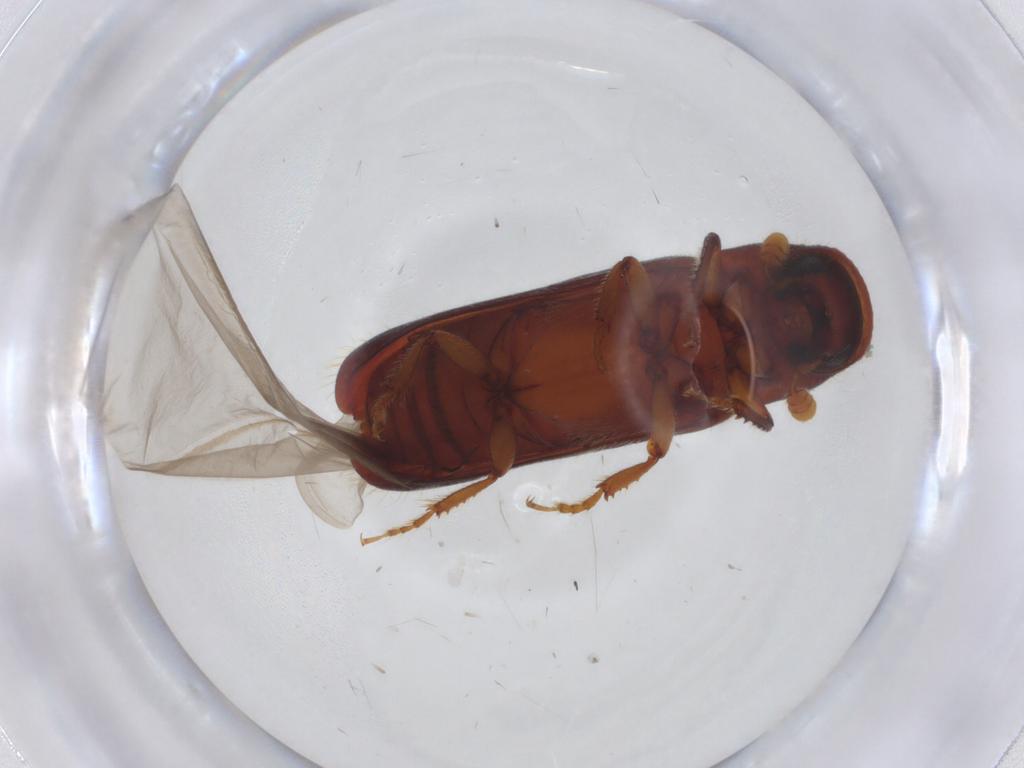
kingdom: Animalia
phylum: Arthropoda
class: Insecta
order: Coleoptera
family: Curculionidae
